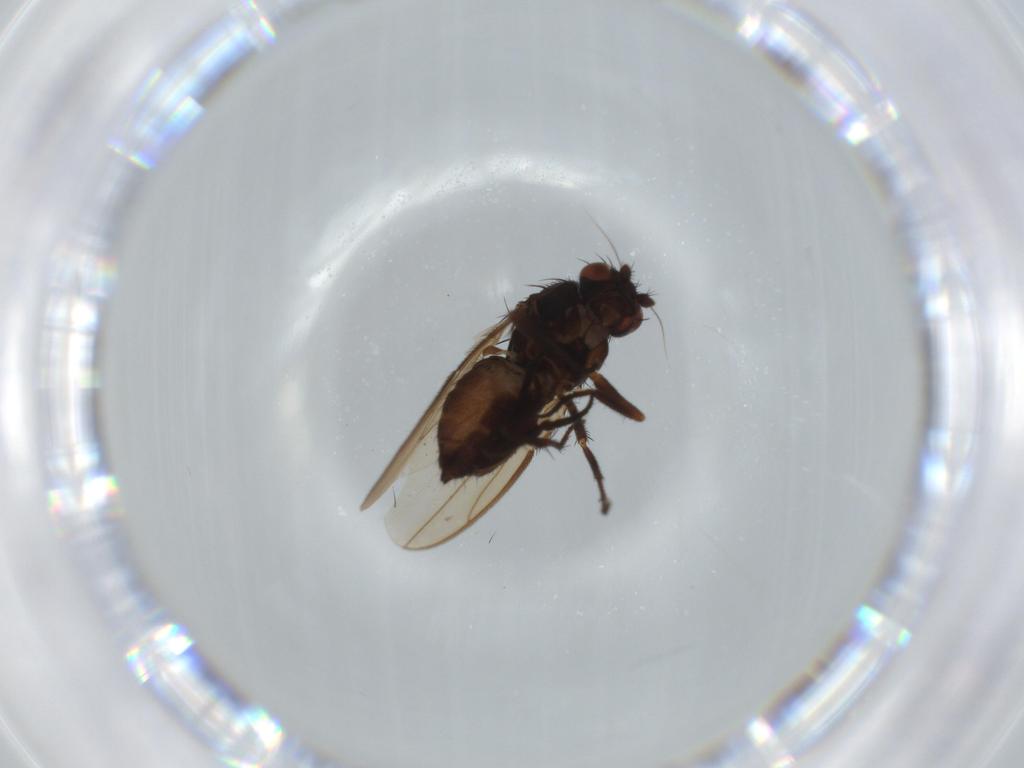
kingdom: Animalia
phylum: Arthropoda
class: Insecta
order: Diptera
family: Sphaeroceridae
